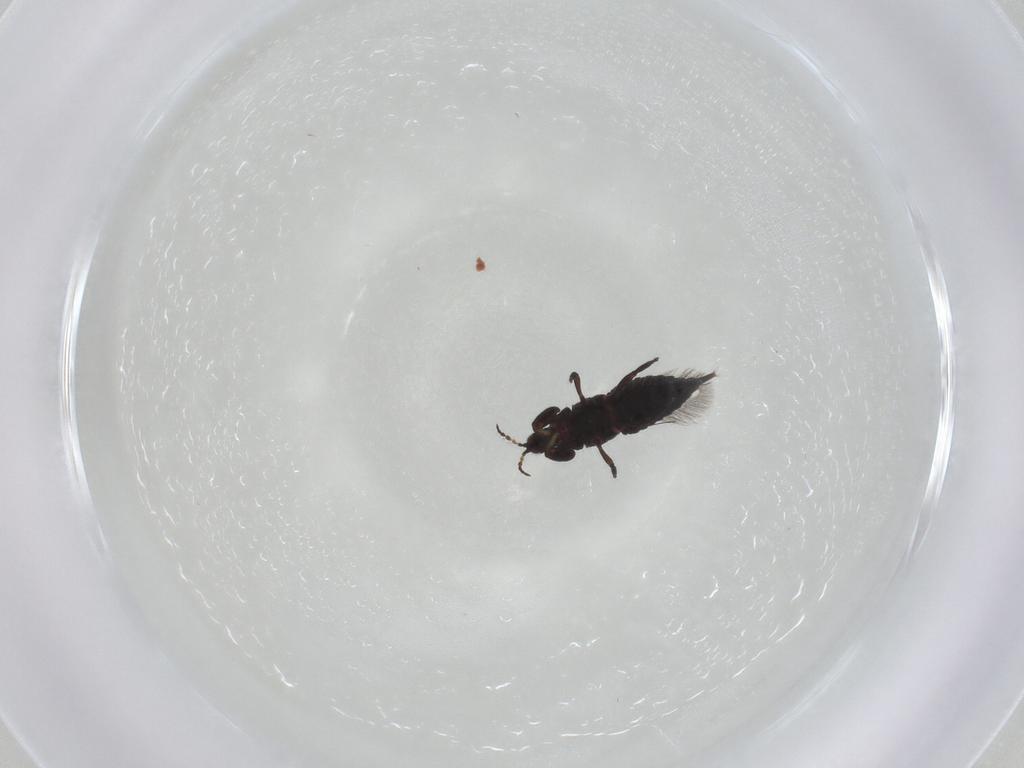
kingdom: Animalia
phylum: Arthropoda
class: Insecta
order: Thysanoptera
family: Phlaeothripidae
